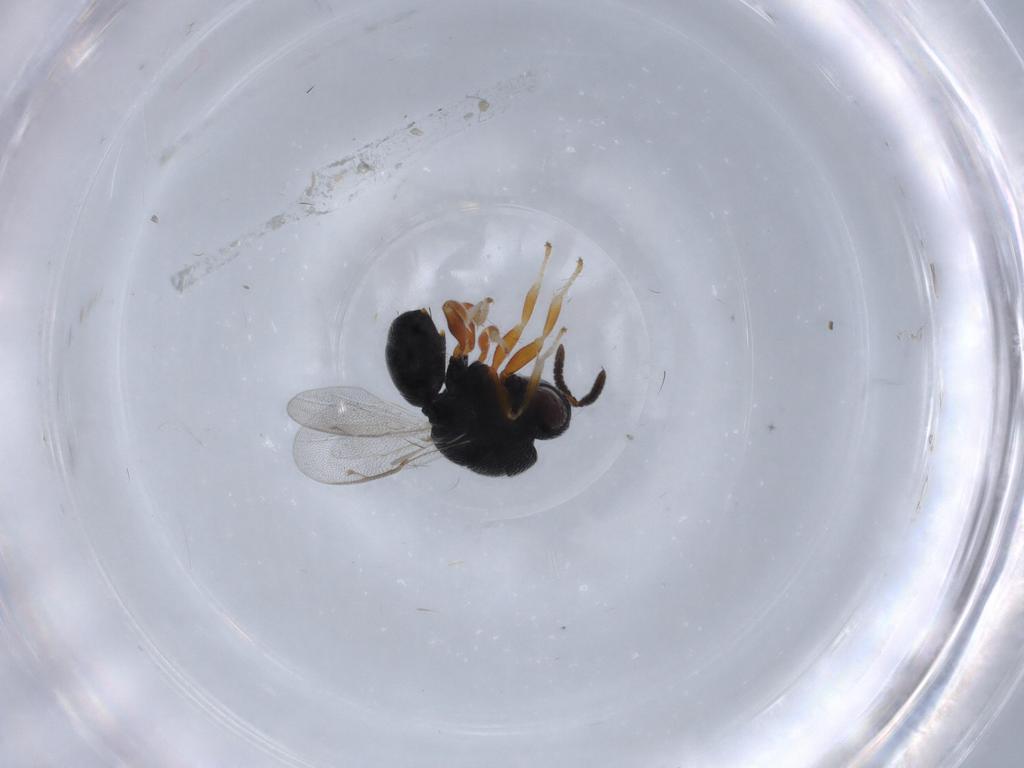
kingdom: Animalia
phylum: Arthropoda
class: Insecta
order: Hymenoptera
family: Eurytomidae
